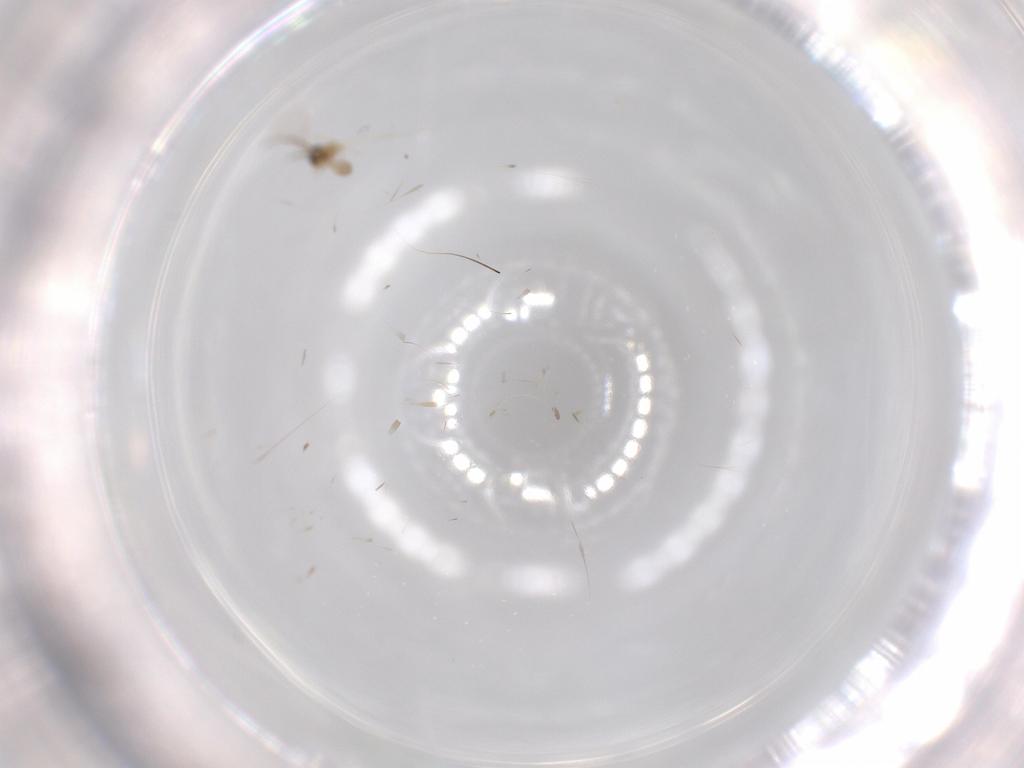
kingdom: Animalia
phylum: Arthropoda
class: Insecta
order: Diptera
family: Cecidomyiidae
